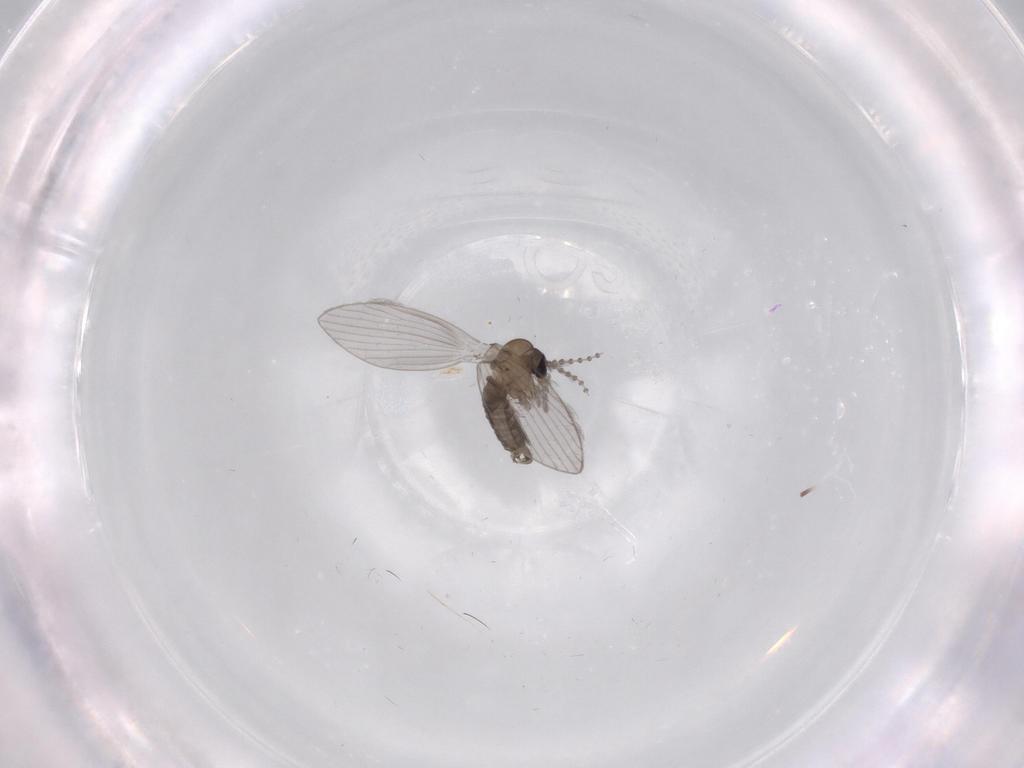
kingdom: Animalia
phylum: Arthropoda
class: Insecta
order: Diptera
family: Psychodidae
